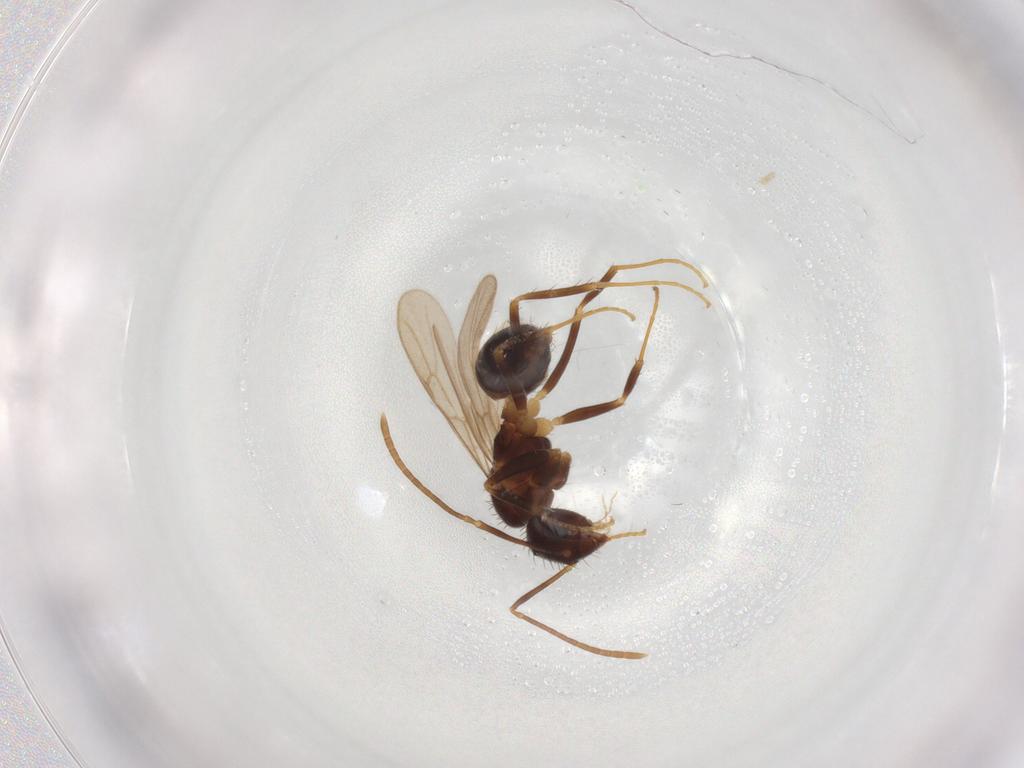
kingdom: Animalia
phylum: Arthropoda
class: Insecta
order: Hymenoptera
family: Formicidae
